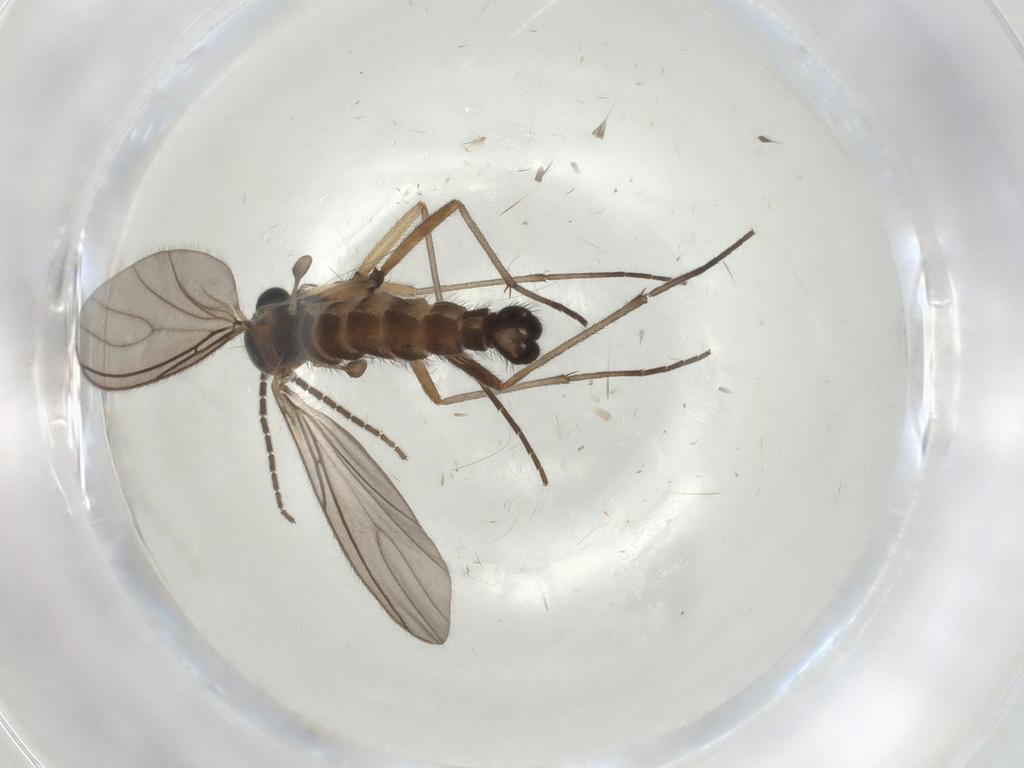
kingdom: Animalia
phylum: Arthropoda
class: Insecta
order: Diptera
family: Sciaridae
